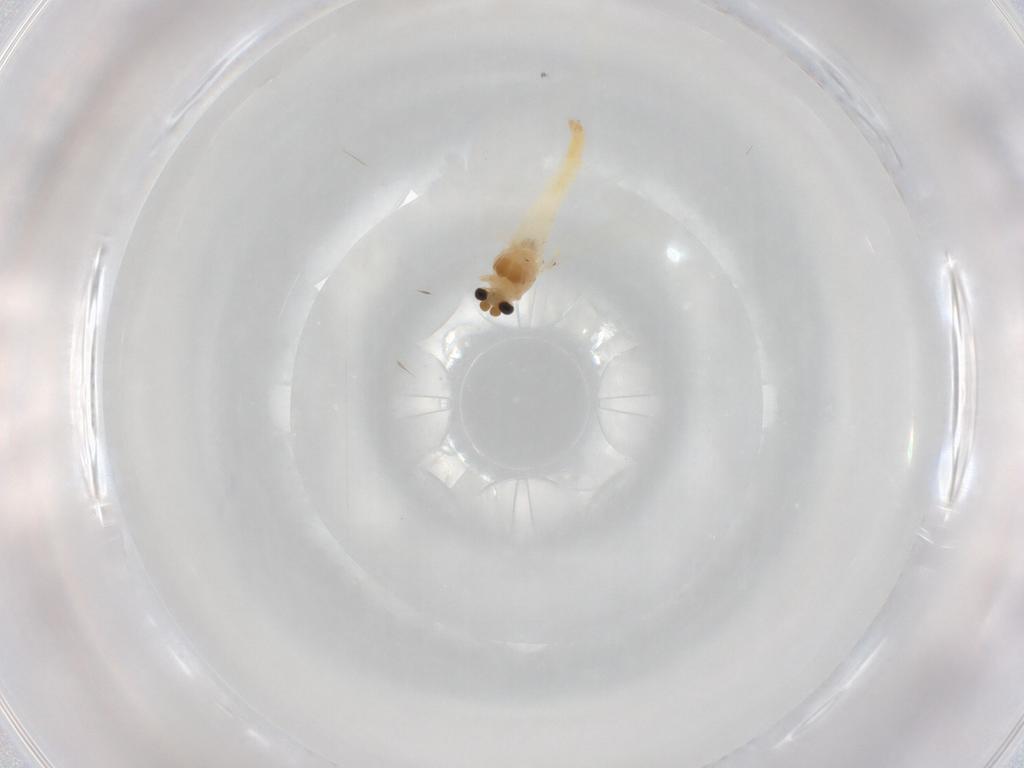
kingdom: Animalia
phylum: Arthropoda
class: Insecta
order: Diptera
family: Chironomidae
